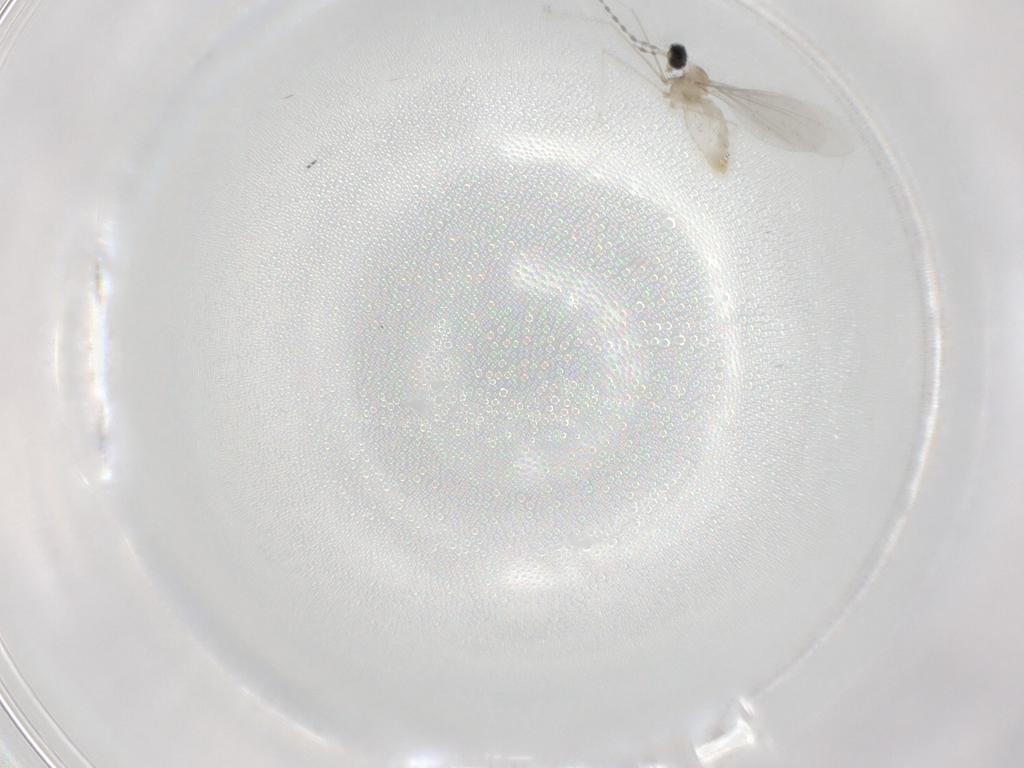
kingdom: Animalia
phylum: Arthropoda
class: Insecta
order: Diptera
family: Cecidomyiidae
